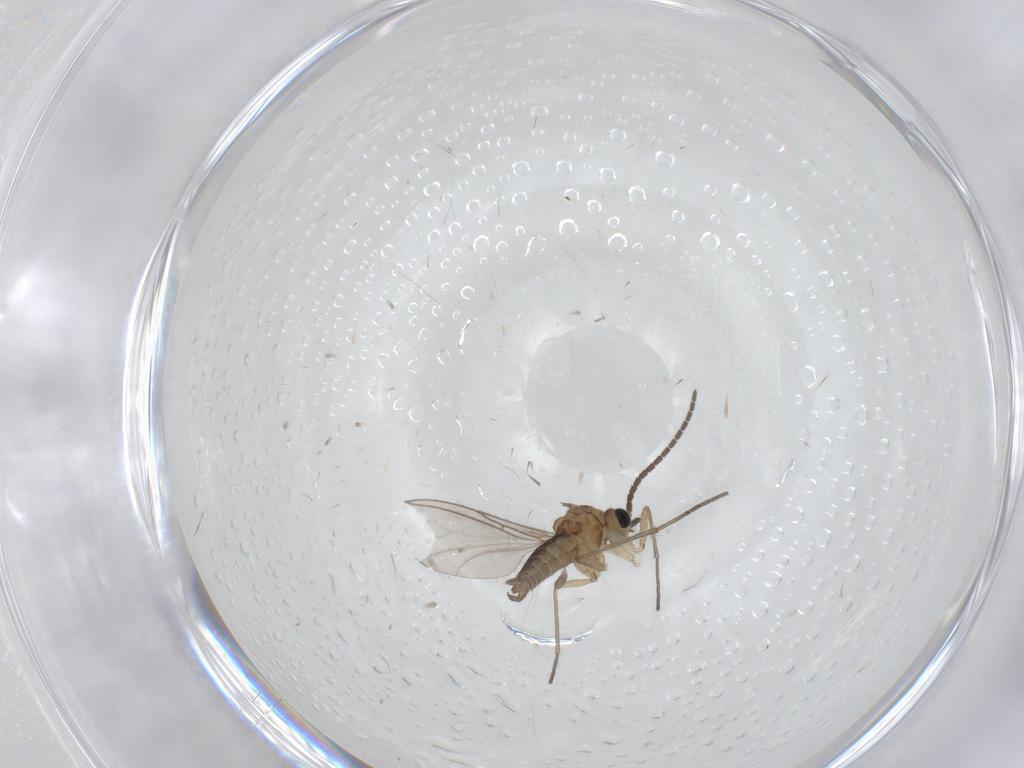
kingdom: Animalia
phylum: Arthropoda
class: Insecta
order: Diptera
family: Sciaridae
